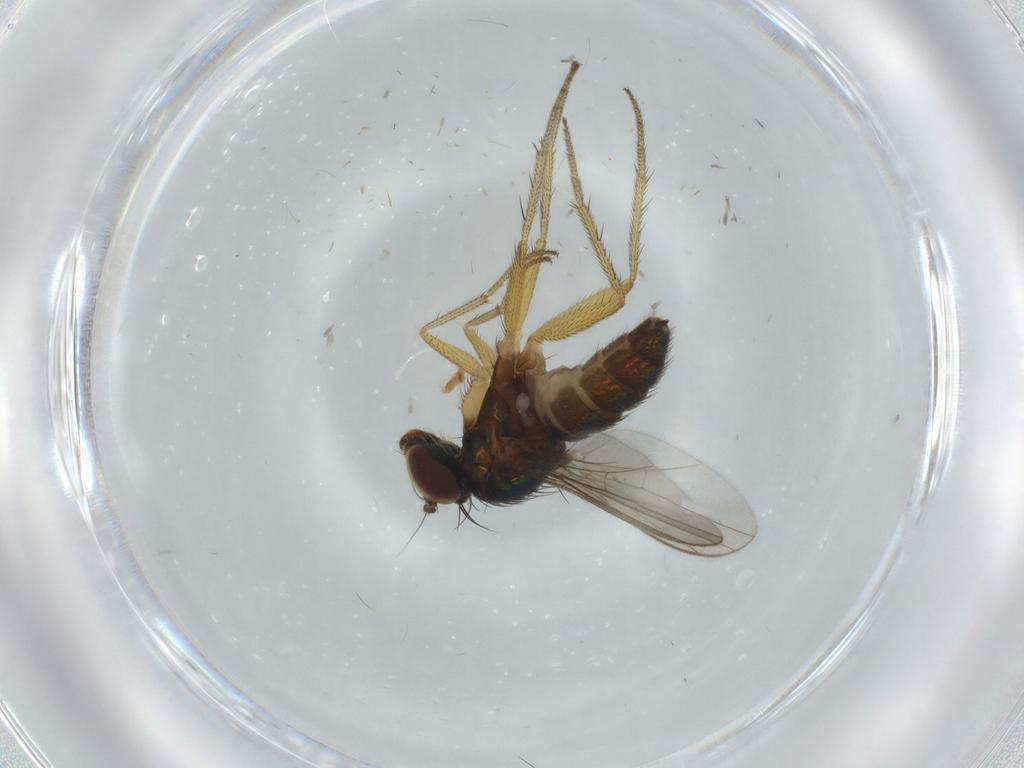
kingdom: Animalia
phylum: Arthropoda
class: Insecta
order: Diptera
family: Dolichopodidae
